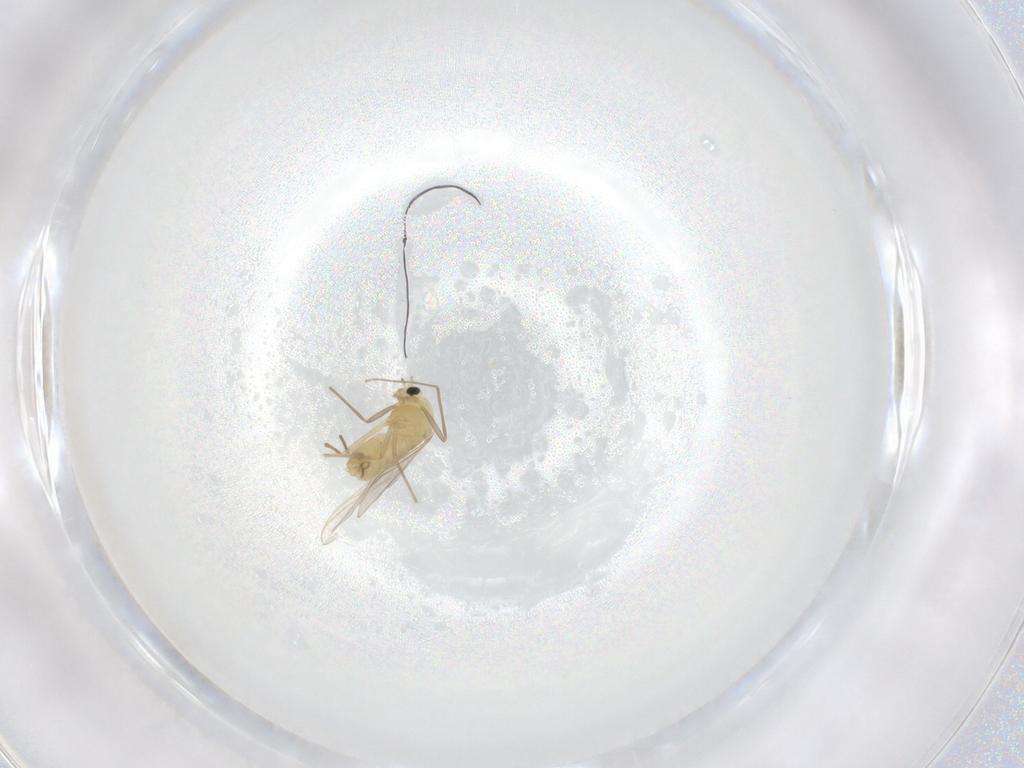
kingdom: Animalia
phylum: Arthropoda
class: Insecta
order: Diptera
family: Chironomidae
